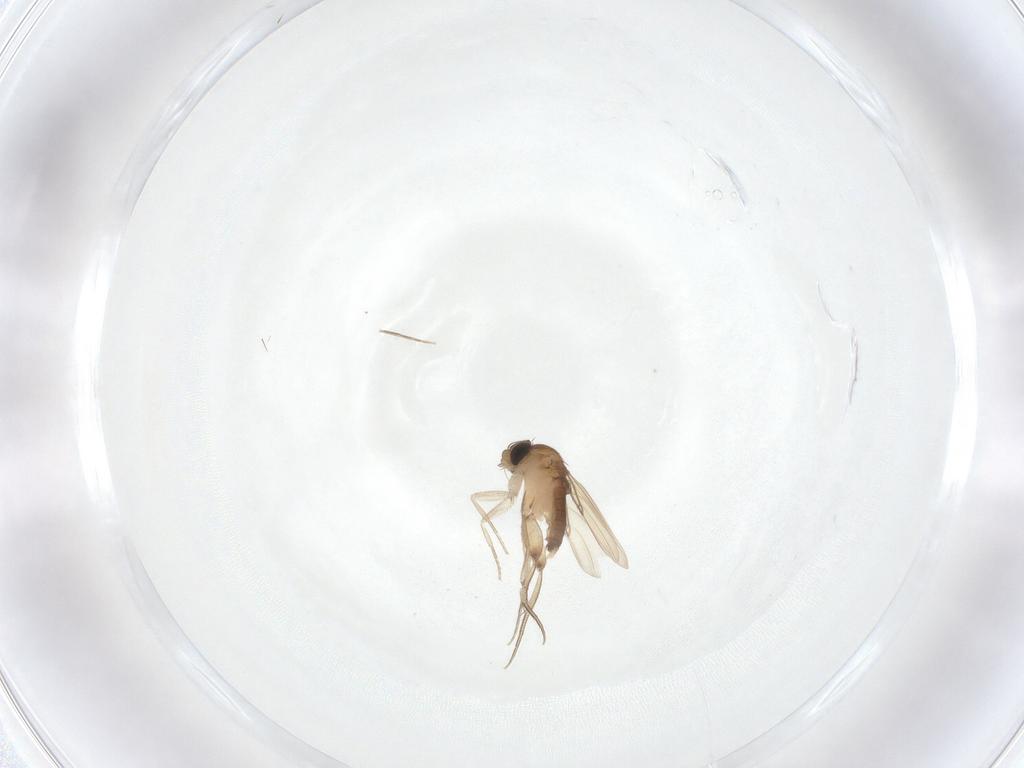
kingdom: Animalia
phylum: Arthropoda
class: Insecta
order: Diptera
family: Phoridae
